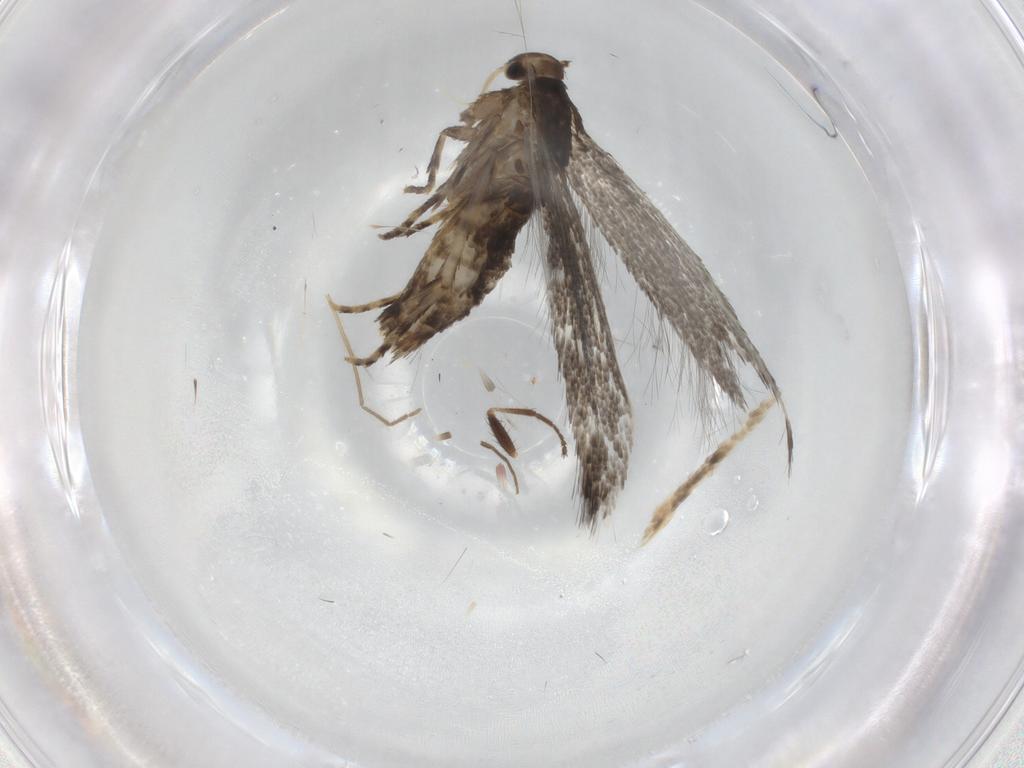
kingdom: Animalia
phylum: Arthropoda
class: Insecta
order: Lepidoptera
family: Elachistidae
